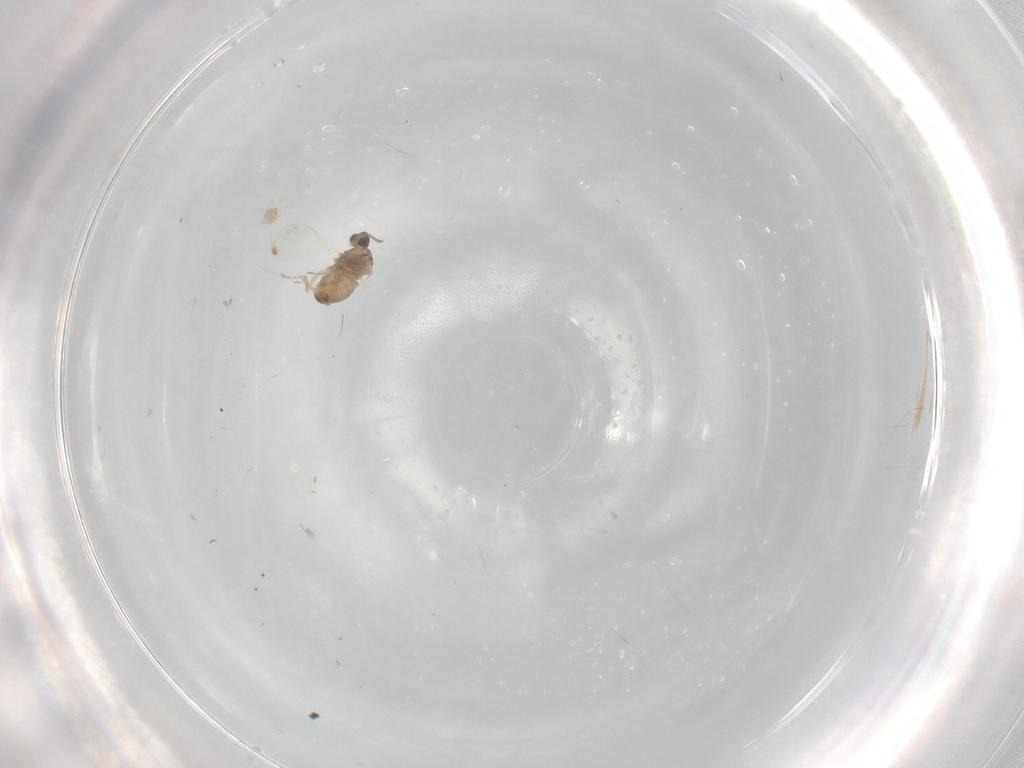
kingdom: Animalia
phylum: Arthropoda
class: Insecta
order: Diptera
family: Cecidomyiidae
